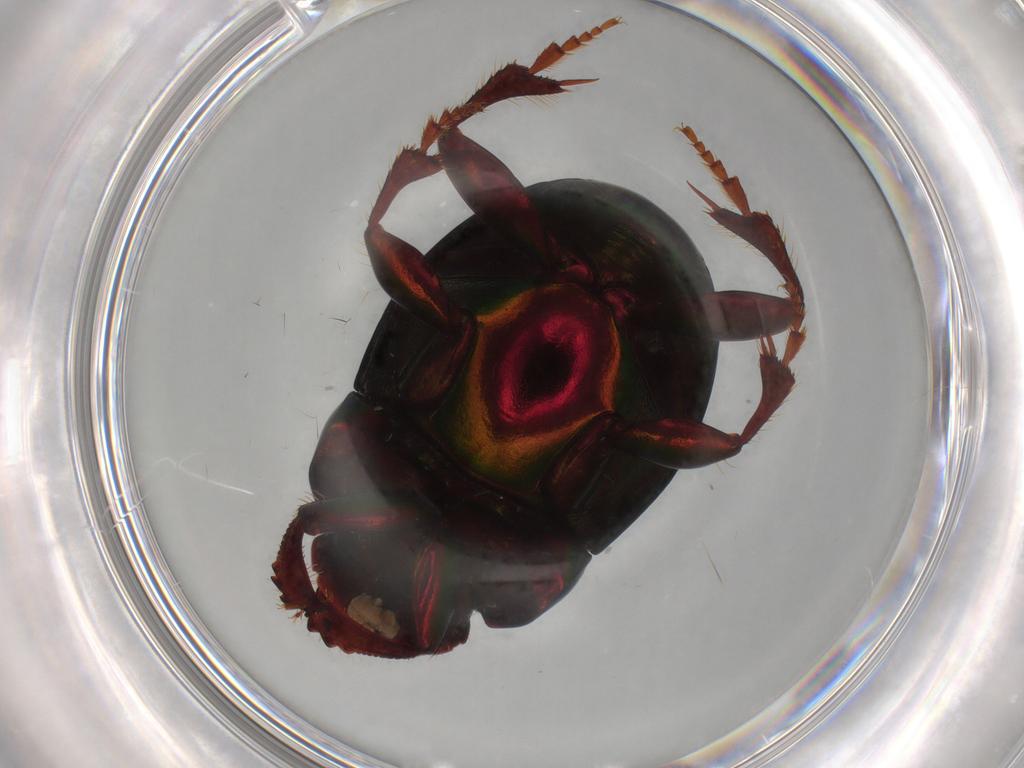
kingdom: Animalia
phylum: Arthropoda
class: Insecta
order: Coleoptera
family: Scarabaeidae
